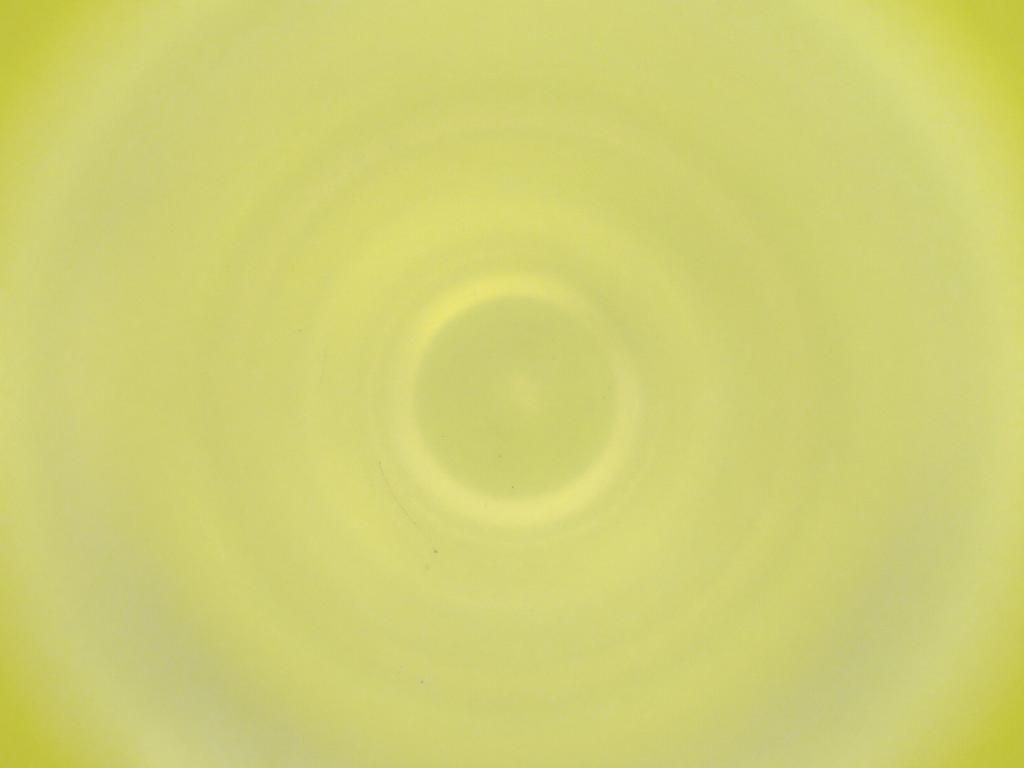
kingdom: Animalia
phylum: Arthropoda
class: Insecta
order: Diptera
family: Cecidomyiidae
